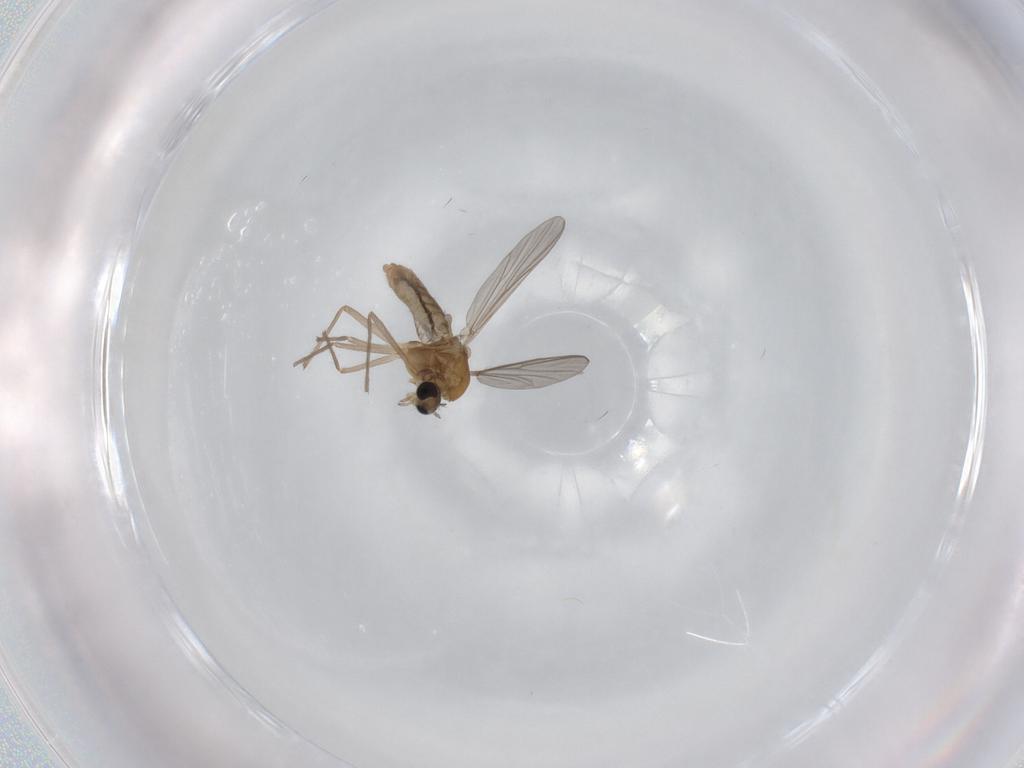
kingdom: Animalia
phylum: Arthropoda
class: Insecta
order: Diptera
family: Chironomidae
